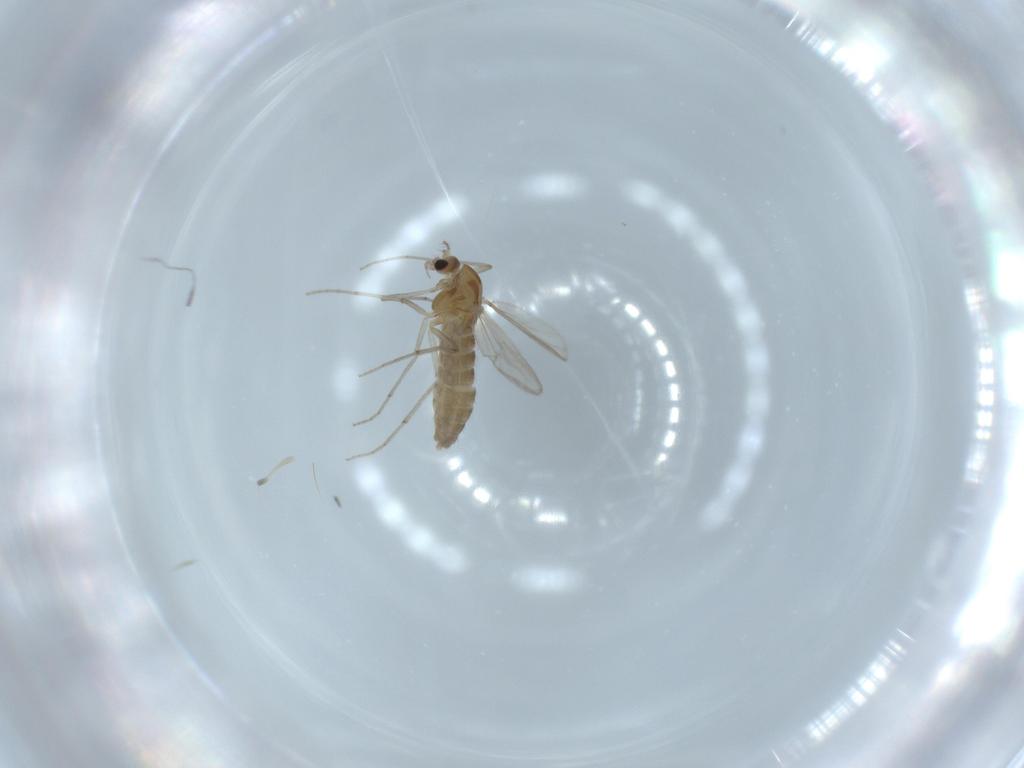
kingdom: Animalia
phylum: Arthropoda
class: Insecta
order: Diptera
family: Chironomidae
